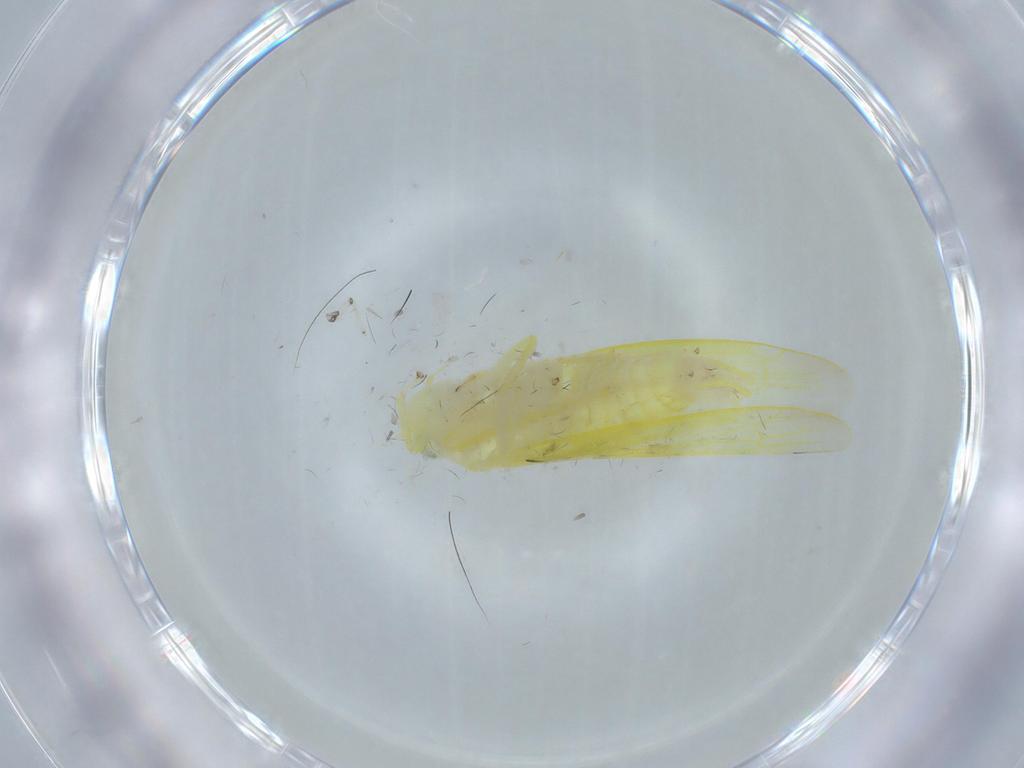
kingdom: Animalia
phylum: Arthropoda
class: Insecta
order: Hemiptera
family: Cicadellidae
